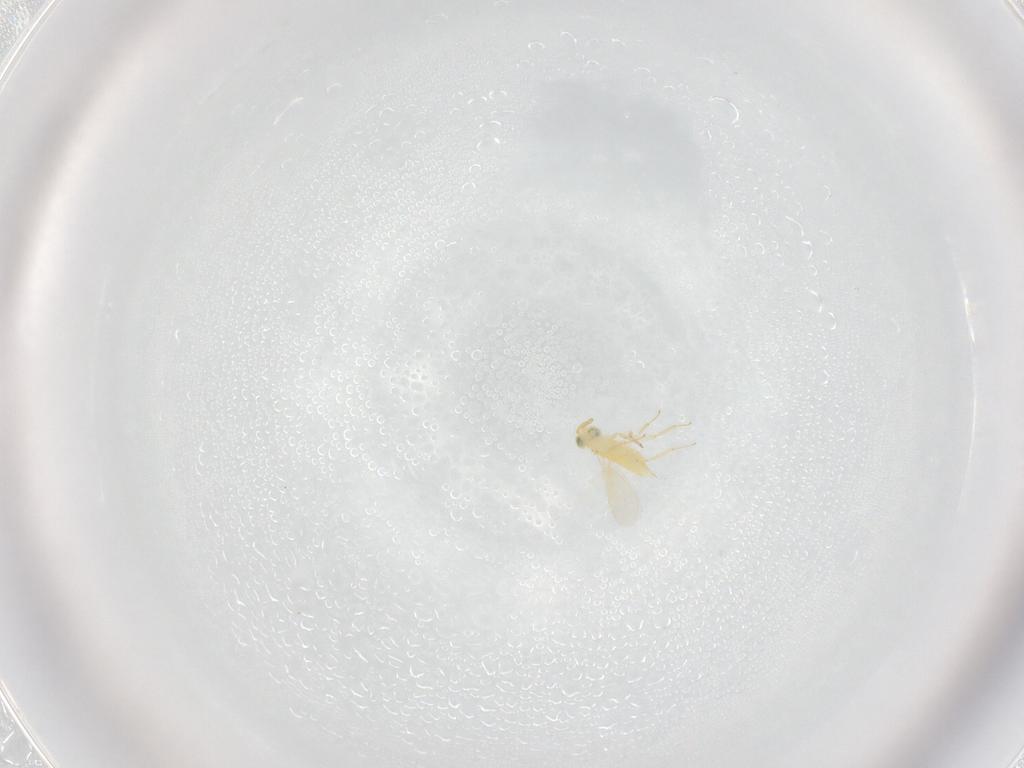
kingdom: Animalia
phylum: Arthropoda
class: Insecta
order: Hymenoptera
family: Aphelinidae
